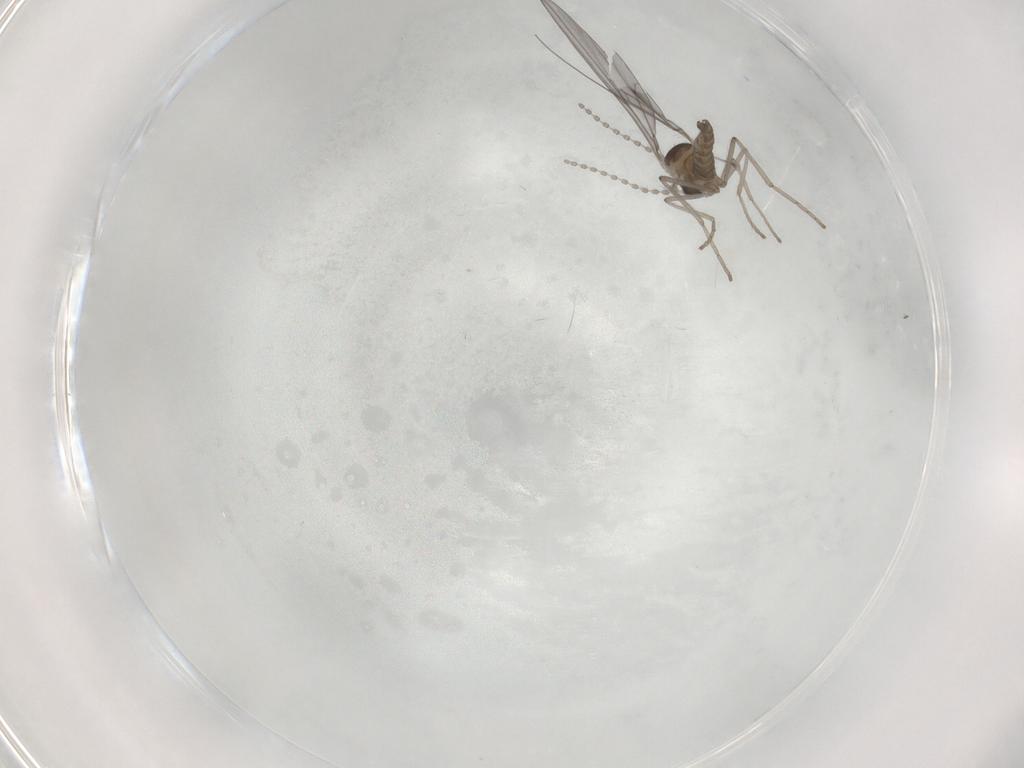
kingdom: Animalia
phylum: Arthropoda
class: Insecta
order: Diptera
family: Cecidomyiidae
